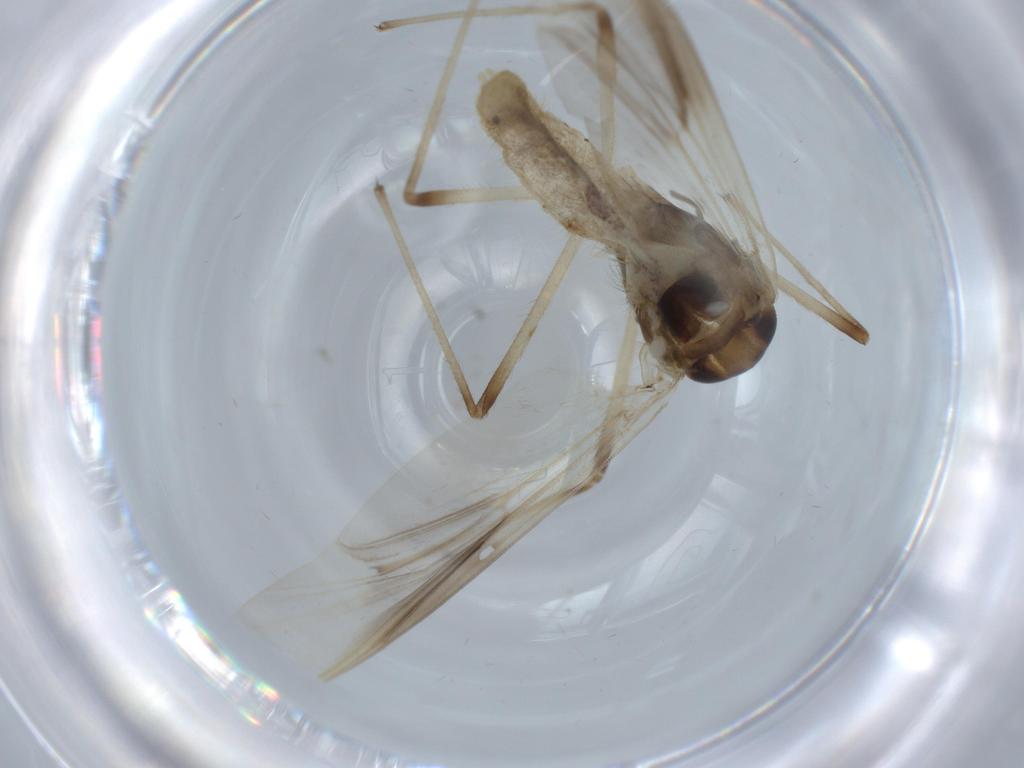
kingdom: Animalia
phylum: Arthropoda
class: Insecta
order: Diptera
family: Chironomidae
